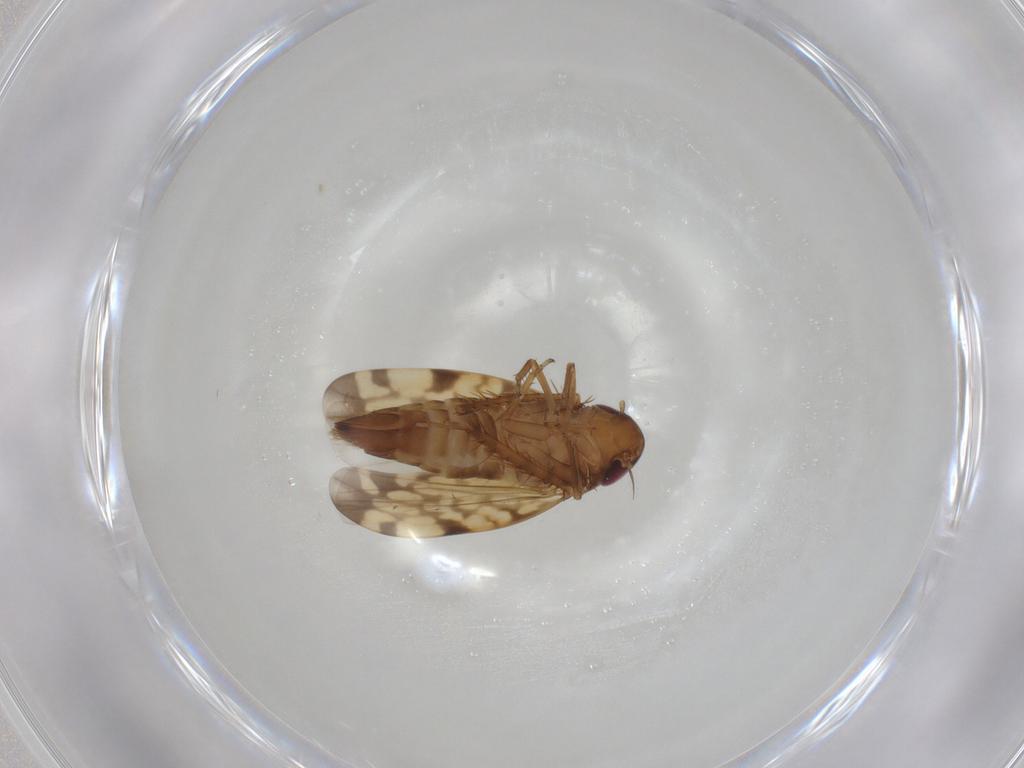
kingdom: Animalia
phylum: Arthropoda
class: Insecta
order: Hemiptera
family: Cicadellidae
